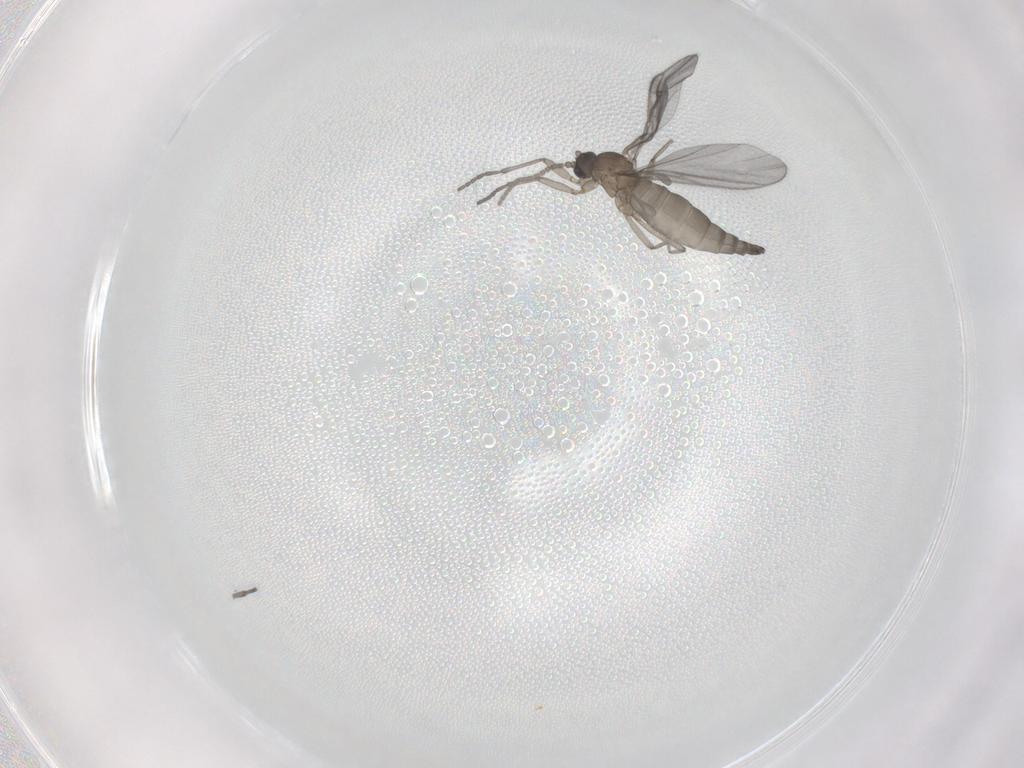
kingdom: Animalia
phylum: Arthropoda
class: Insecta
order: Diptera
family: Sciaridae
